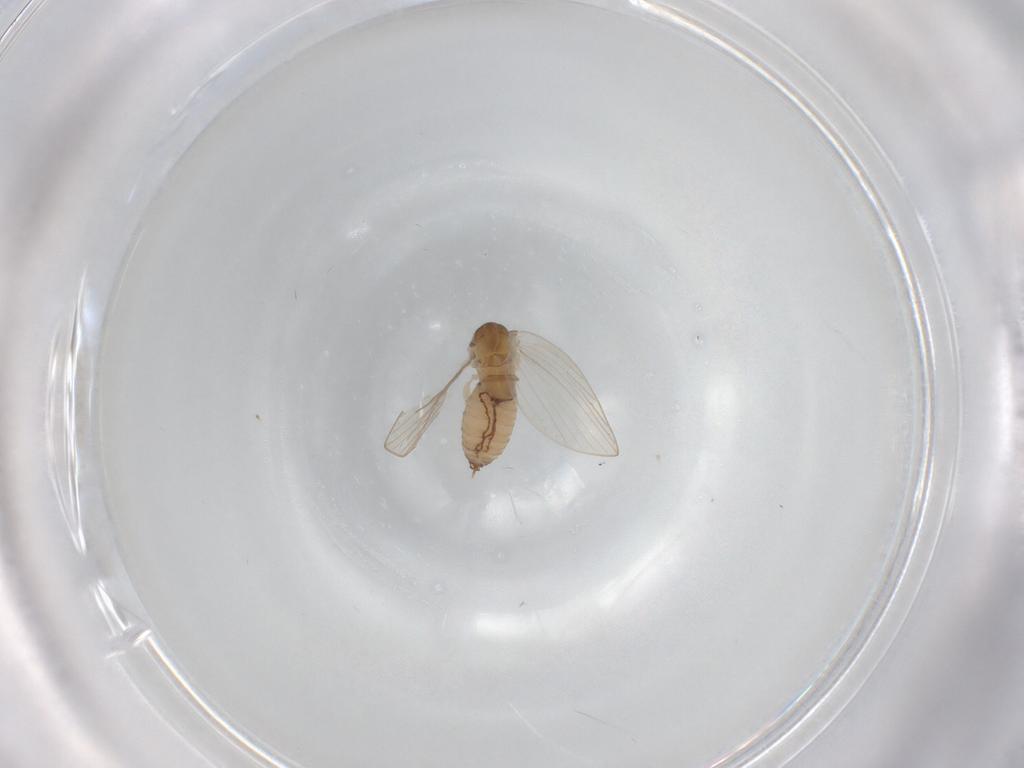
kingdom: Animalia
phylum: Arthropoda
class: Insecta
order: Diptera
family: Psychodidae
